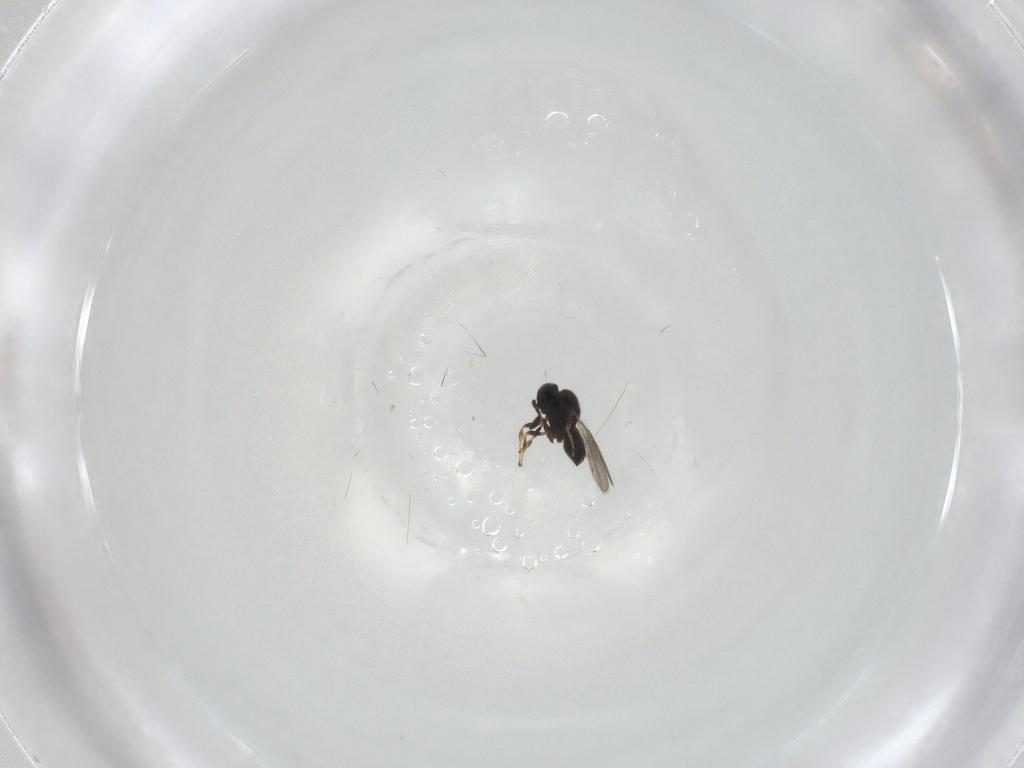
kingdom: Animalia
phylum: Arthropoda
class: Insecta
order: Hymenoptera
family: Scelionidae
